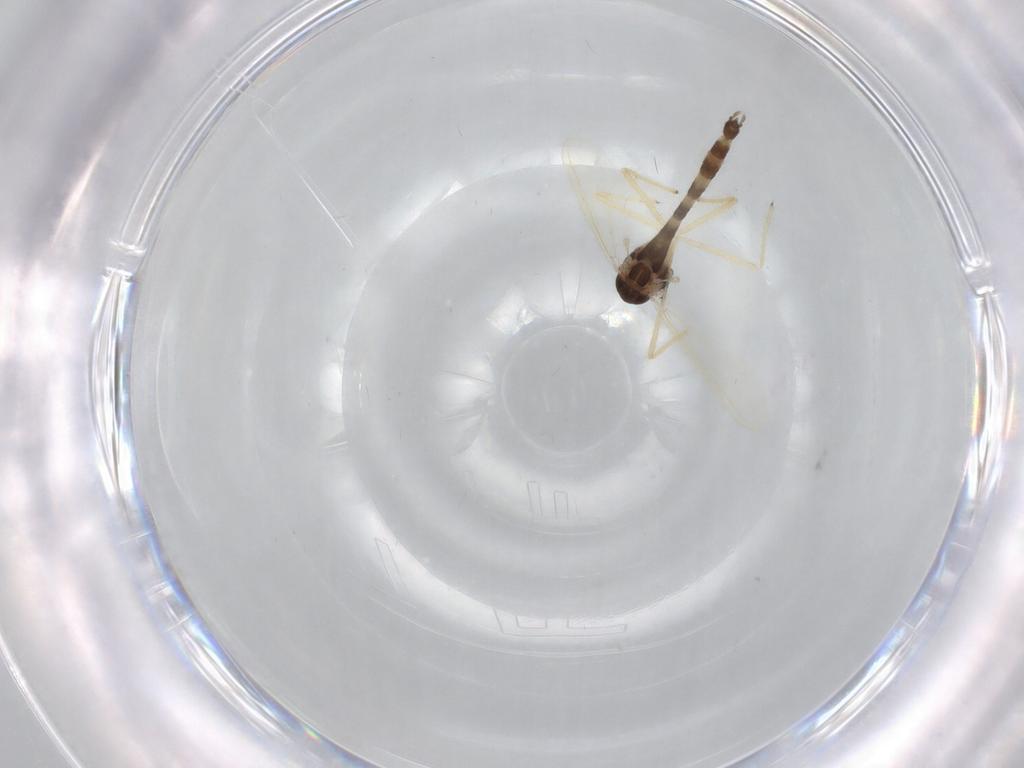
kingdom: Animalia
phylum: Arthropoda
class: Insecta
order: Diptera
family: Chironomidae
